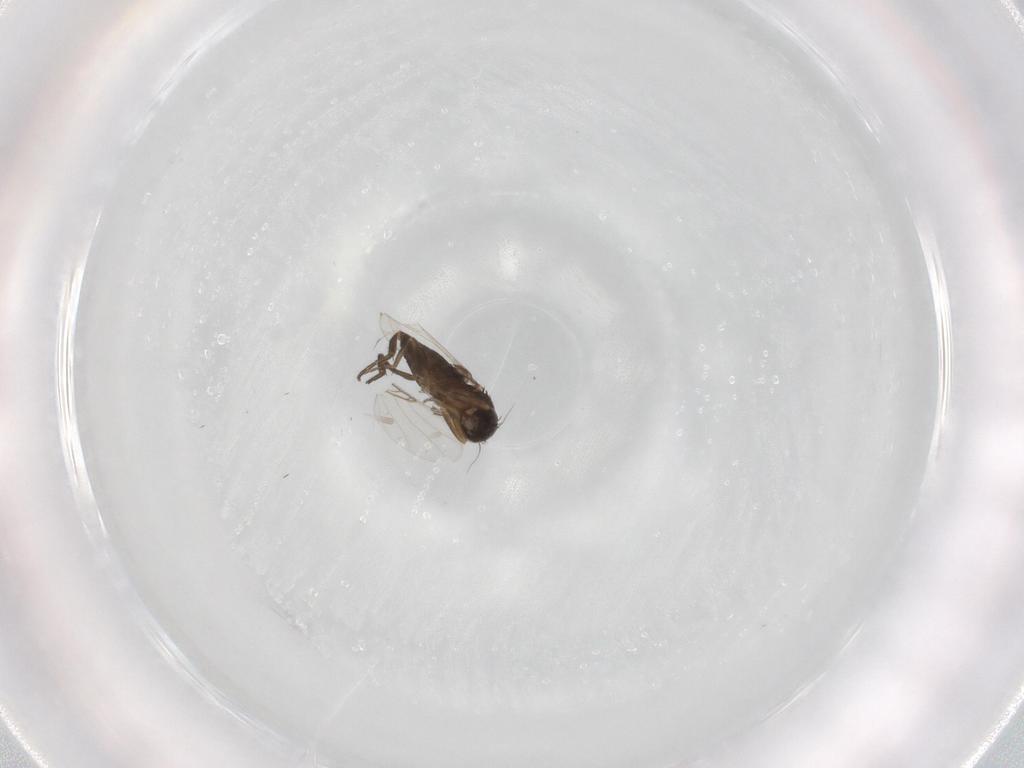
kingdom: Animalia
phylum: Arthropoda
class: Insecta
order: Diptera
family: Phoridae
